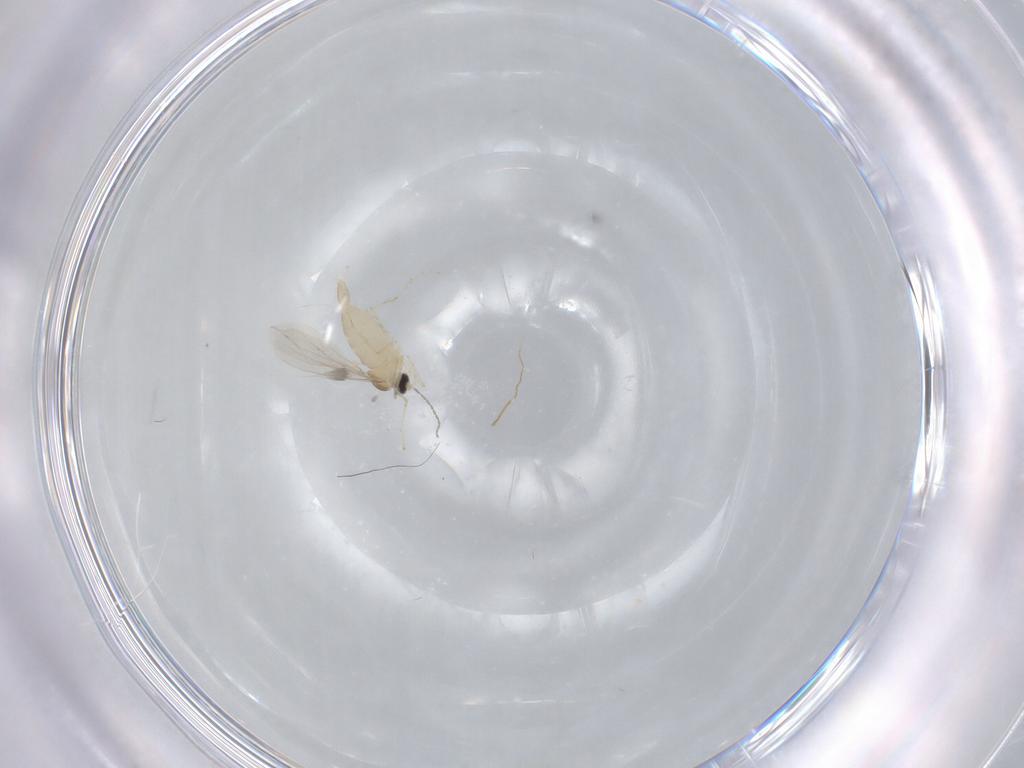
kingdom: Animalia
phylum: Arthropoda
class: Insecta
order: Diptera
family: Cecidomyiidae
